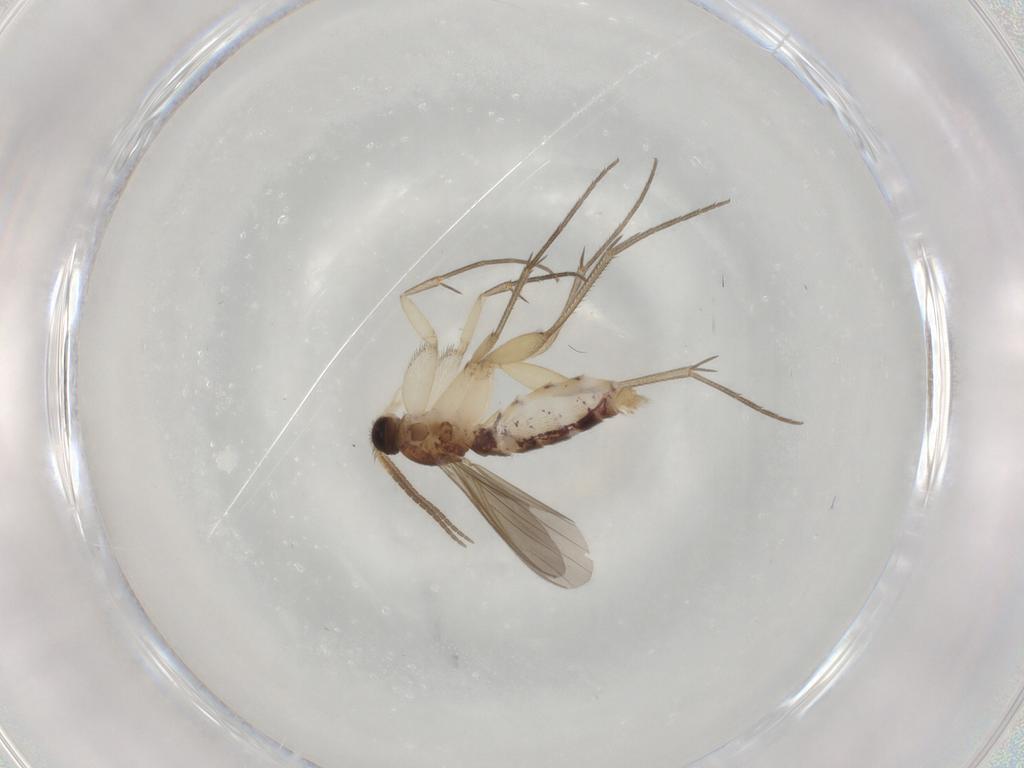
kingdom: Animalia
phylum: Arthropoda
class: Insecta
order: Diptera
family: Mycetophilidae
